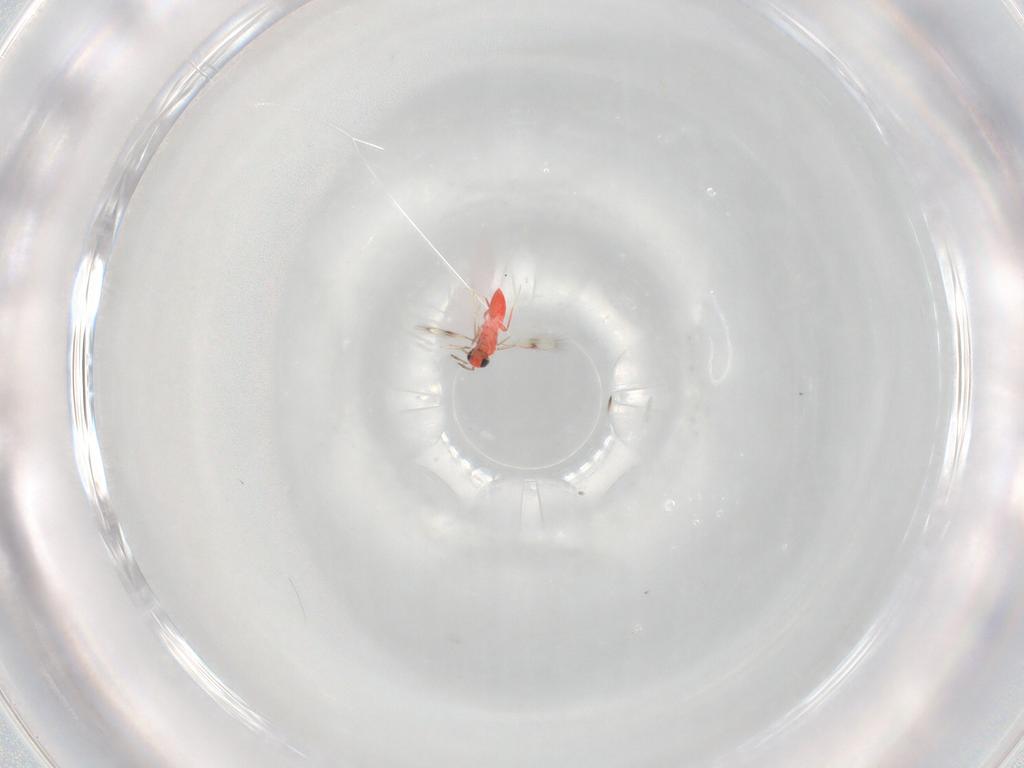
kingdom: Animalia
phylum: Arthropoda
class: Insecta
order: Hymenoptera
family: Trichogrammatidae
